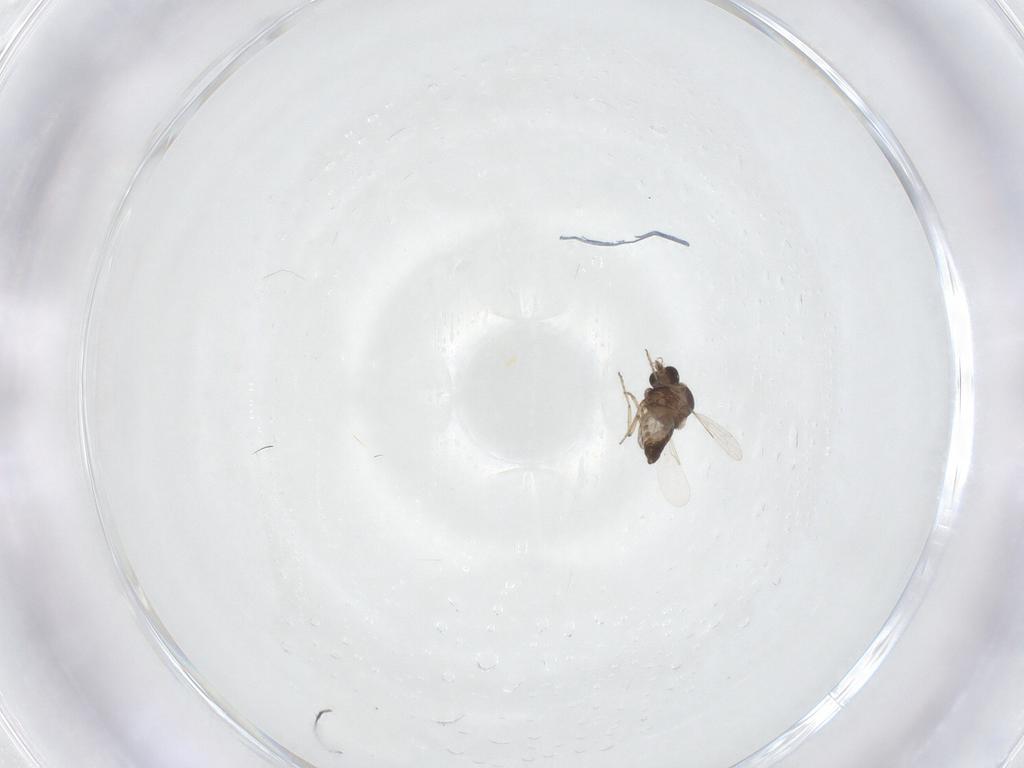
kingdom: Animalia
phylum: Arthropoda
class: Insecta
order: Diptera
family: Ceratopogonidae
